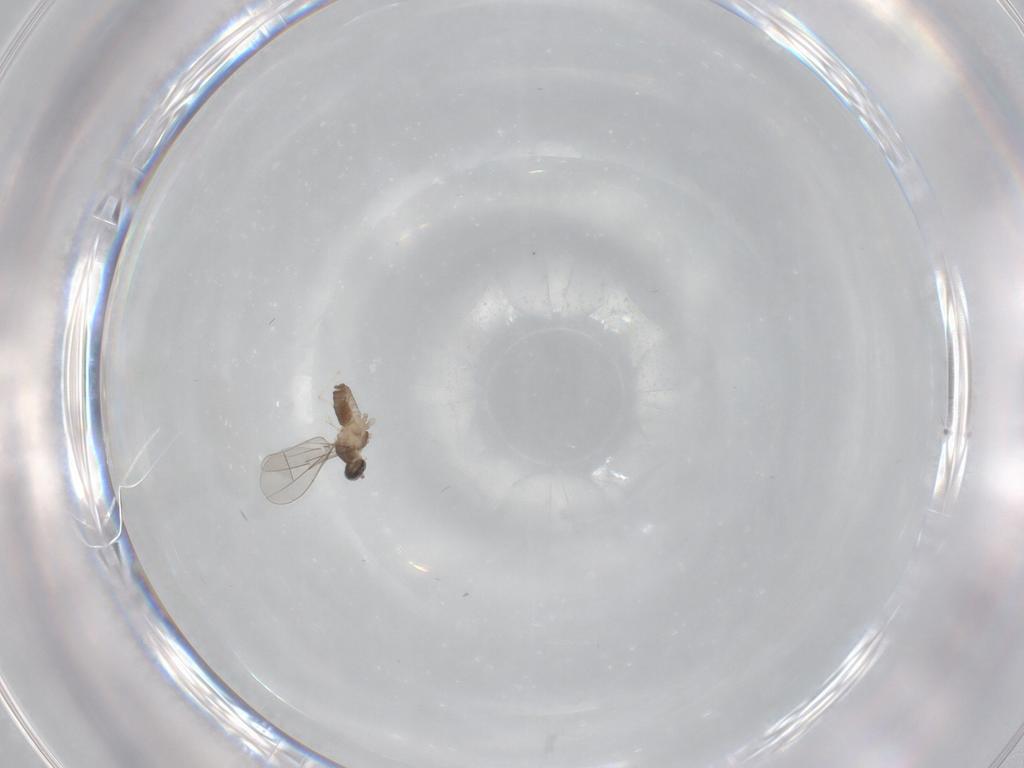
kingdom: Animalia
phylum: Arthropoda
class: Insecta
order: Diptera
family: Cecidomyiidae
